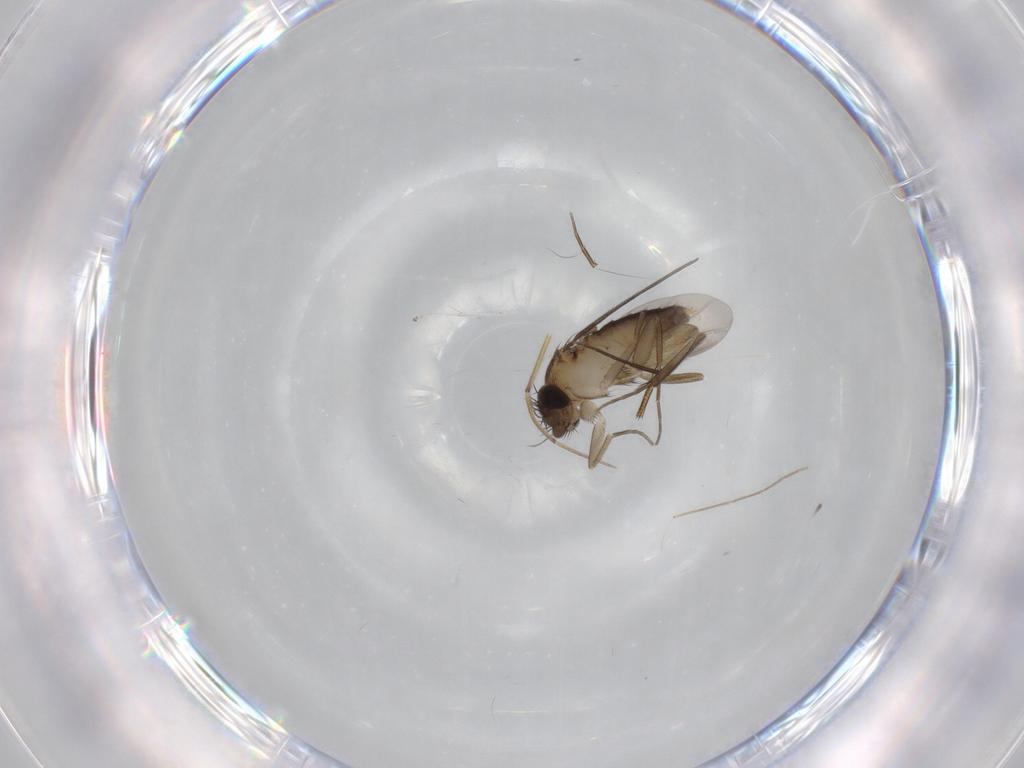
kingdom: Animalia
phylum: Arthropoda
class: Insecta
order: Diptera
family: Phoridae
